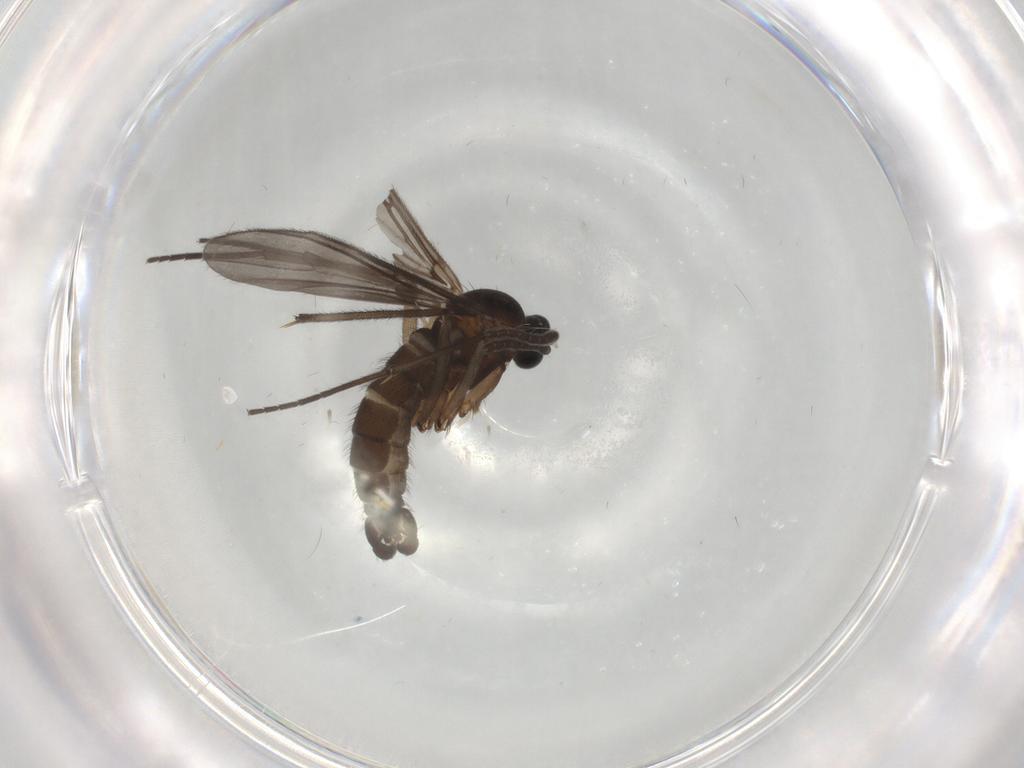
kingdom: Animalia
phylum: Arthropoda
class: Insecta
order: Diptera
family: Sciaridae
